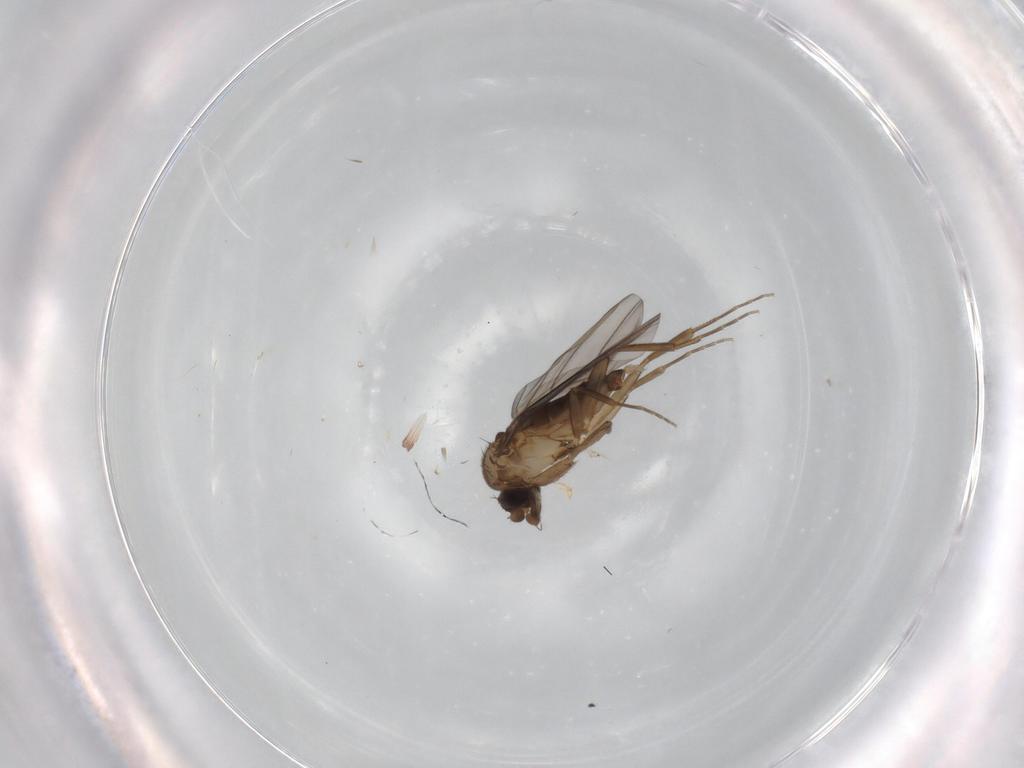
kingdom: Animalia
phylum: Arthropoda
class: Insecta
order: Diptera
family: Phoridae
